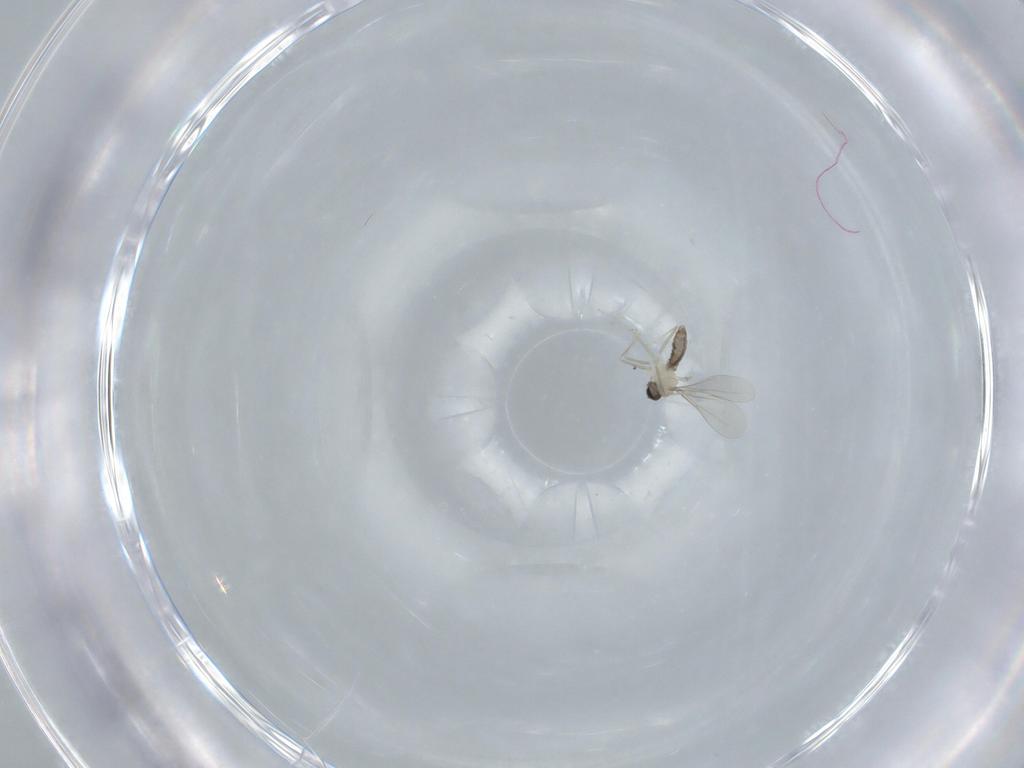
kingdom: Animalia
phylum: Arthropoda
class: Insecta
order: Diptera
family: Cecidomyiidae
